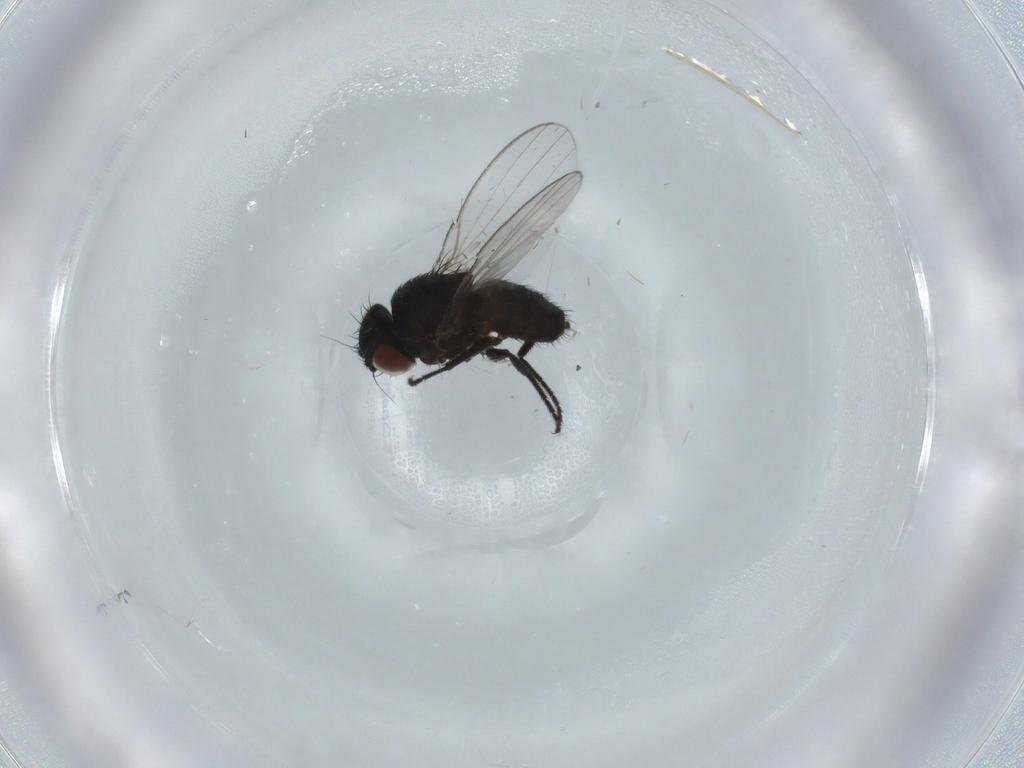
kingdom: Animalia
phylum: Arthropoda
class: Insecta
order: Diptera
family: Milichiidae
